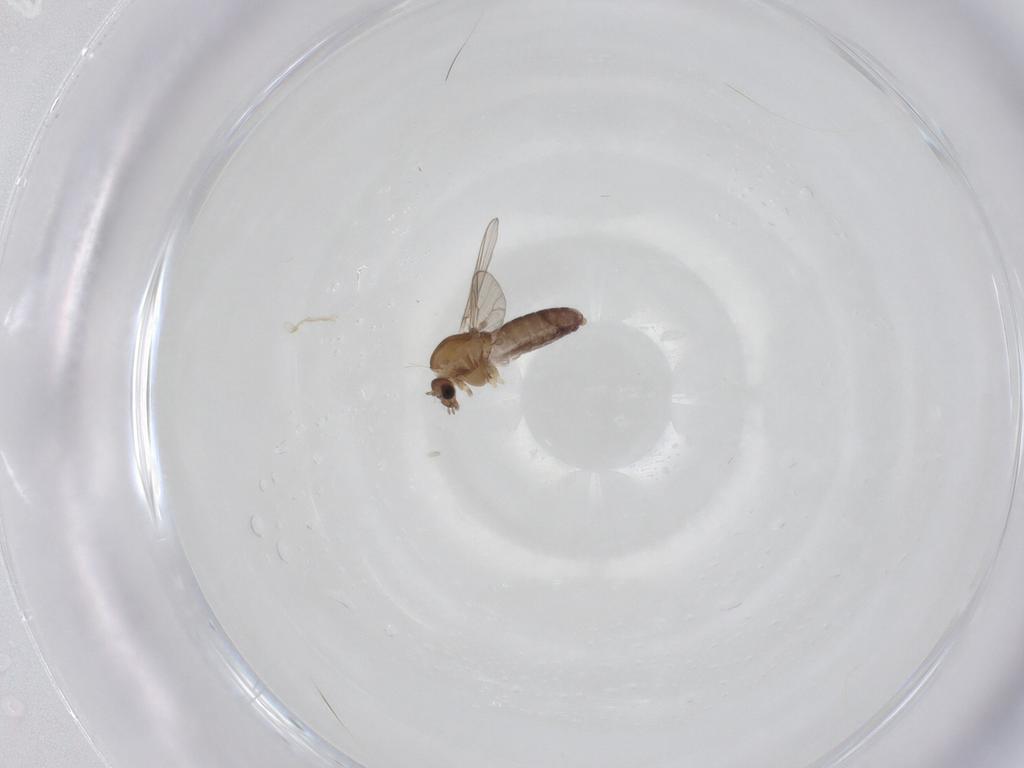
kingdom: Animalia
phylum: Arthropoda
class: Insecta
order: Diptera
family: Chironomidae
